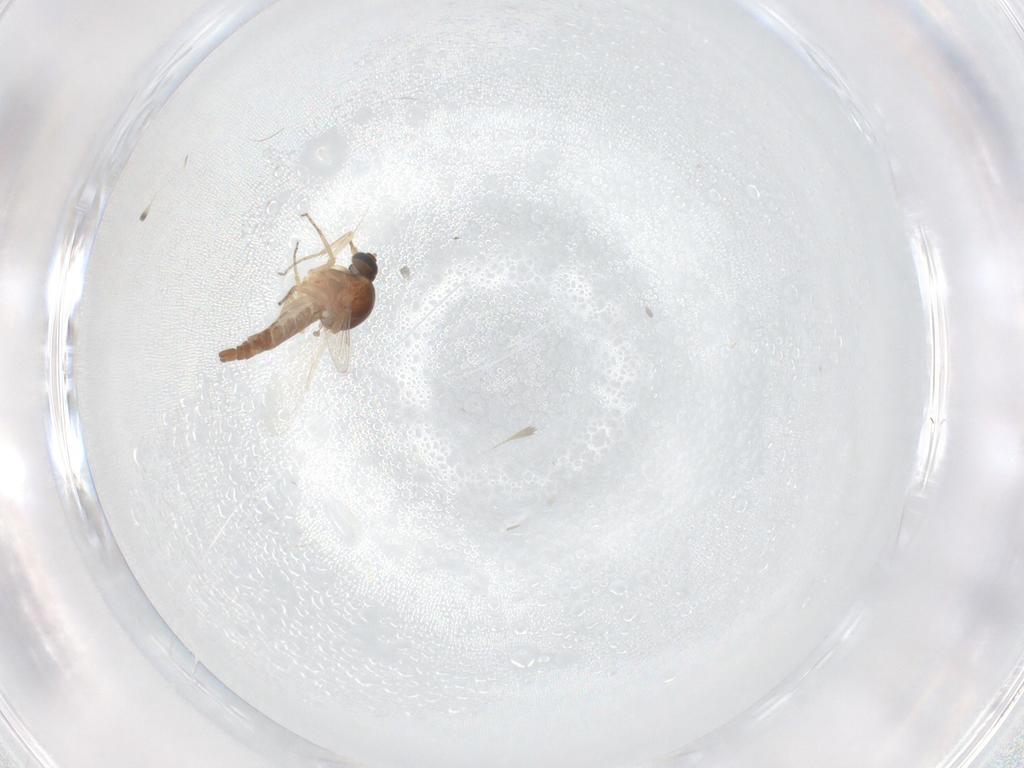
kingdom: Animalia
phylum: Arthropoda
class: Insecta
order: Diptera
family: Ceratopogonidae
